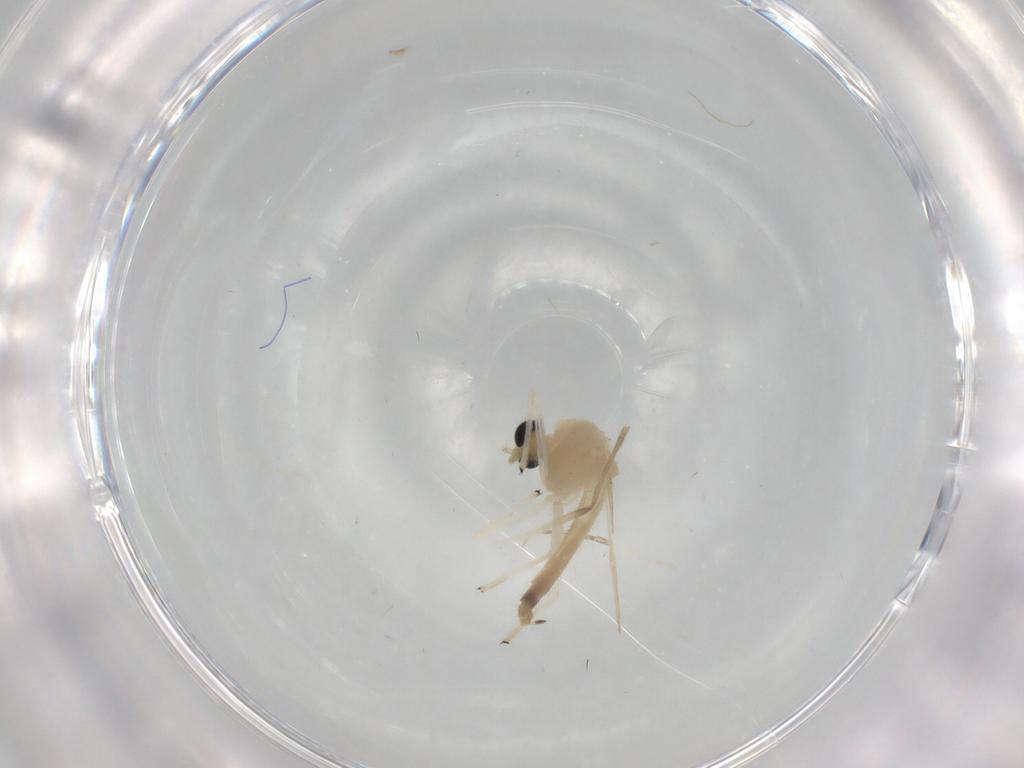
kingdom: Animalia
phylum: Arthropoda
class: Insecta
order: Diptera
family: Chironomidae
